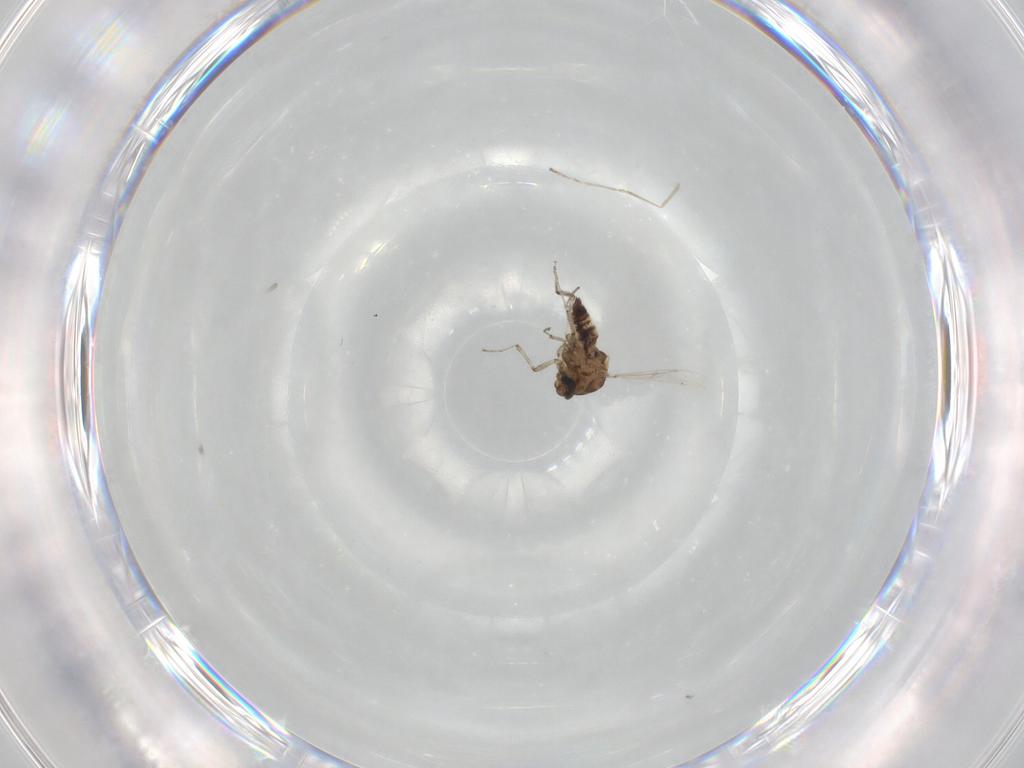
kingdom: Animalia
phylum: Arthropoda
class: Insecta
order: Diptera
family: Ceratopogonidae
